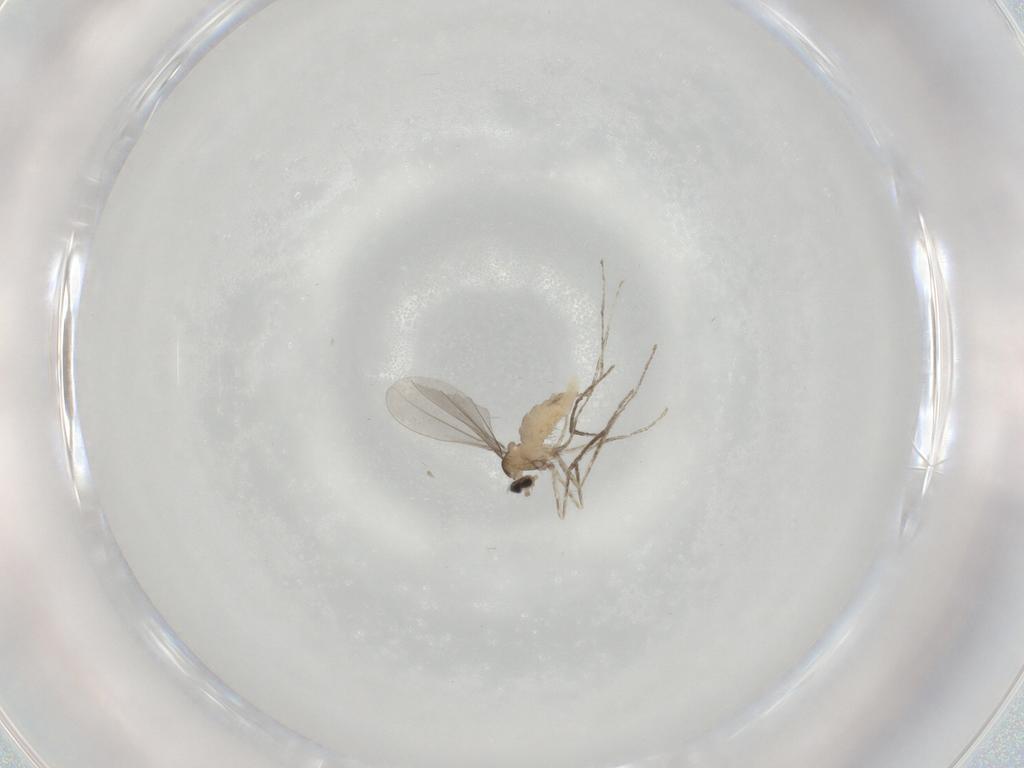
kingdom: Animalia
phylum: Arthropoda
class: Insecta
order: Diptera
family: Cecidomyiidae
